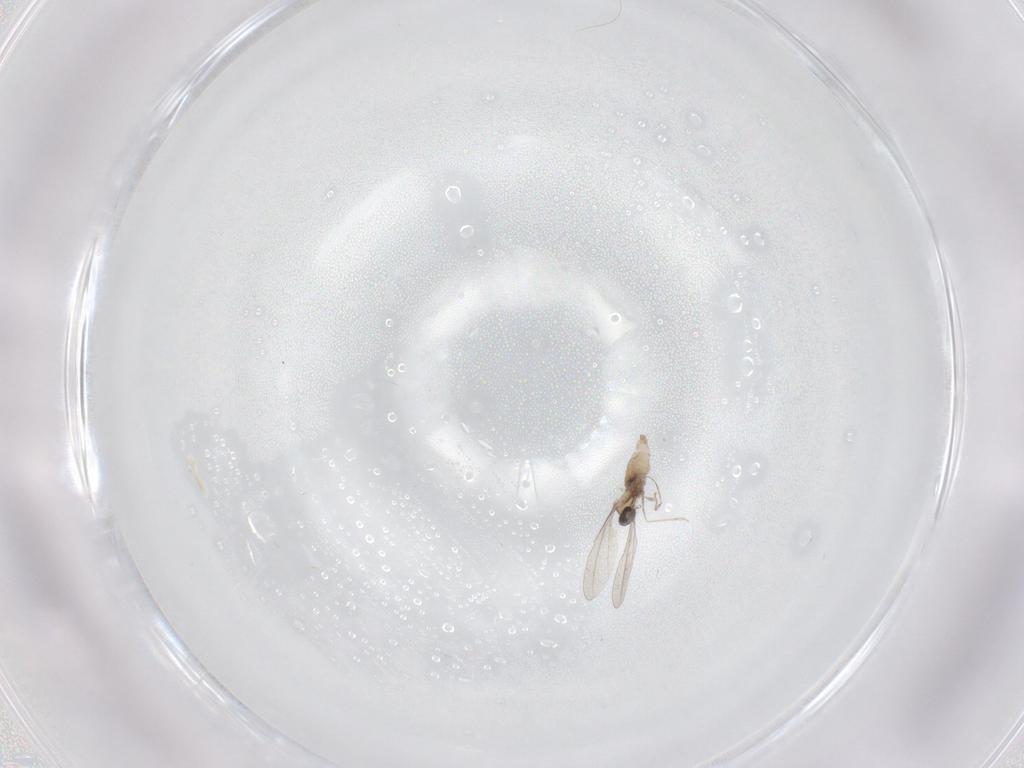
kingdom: Animalia
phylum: Arthropoda
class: Insecta
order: Diptera
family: Cecidomyiidae
